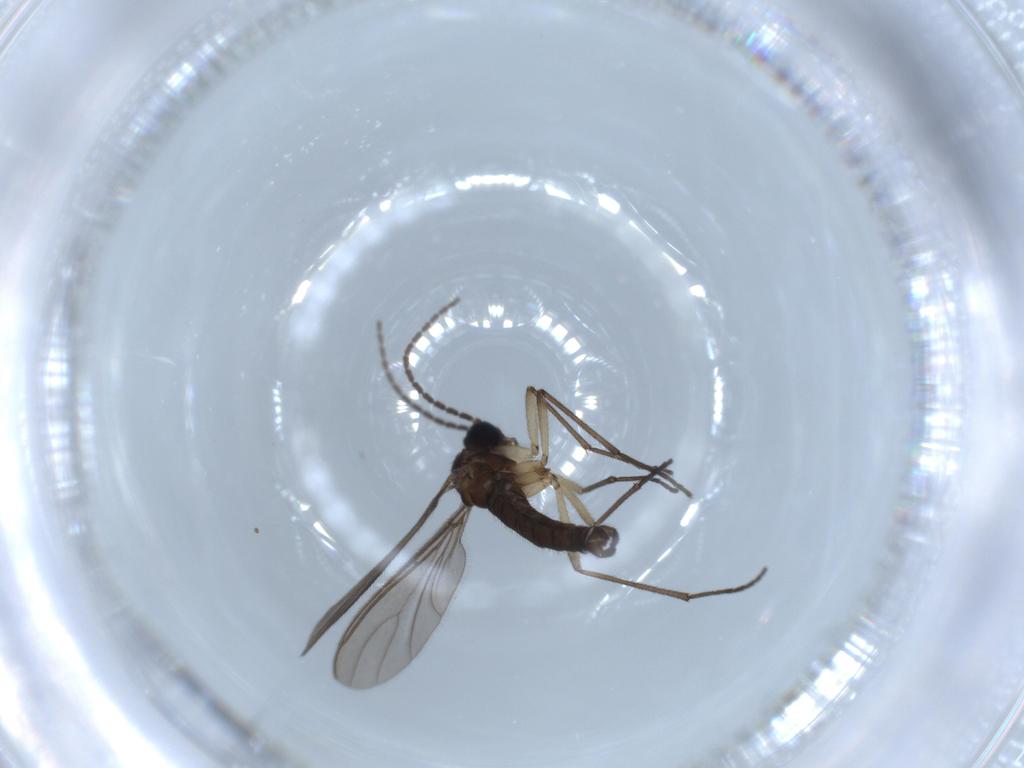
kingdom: Animalia
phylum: Arthropoda
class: Insecta
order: Diptera
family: Sciaridae
